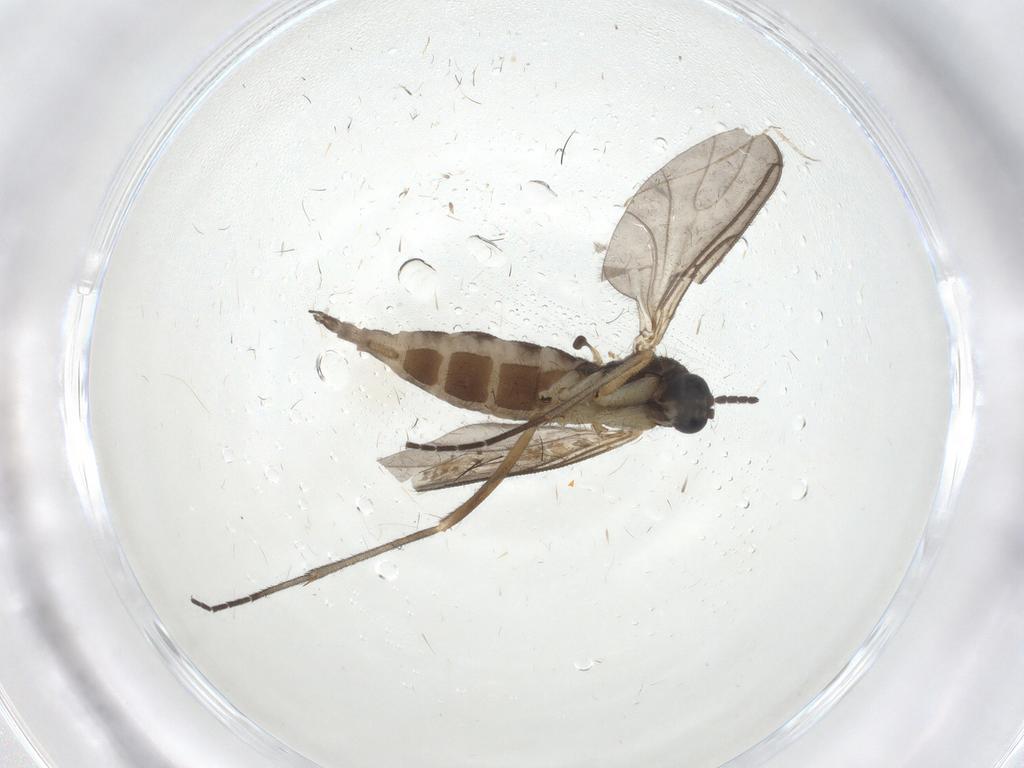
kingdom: Animalia
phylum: Arthropoda
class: Insecta
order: Diptera
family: Sciaridae
